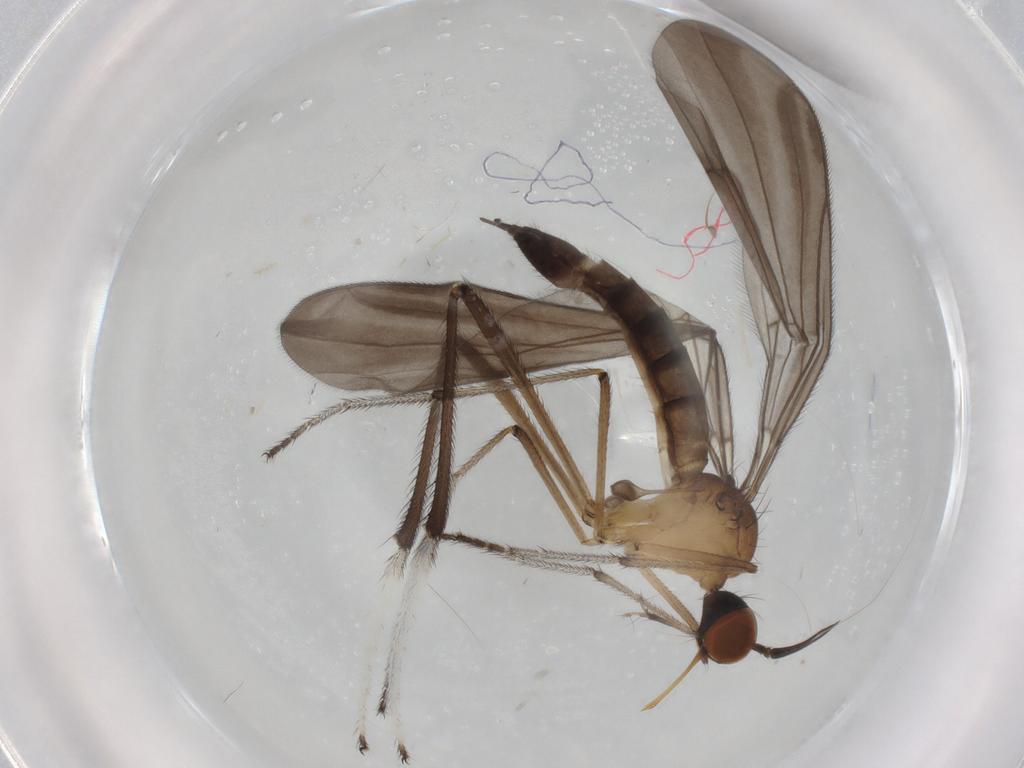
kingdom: Animalia
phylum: Arthropoda
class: Insecta
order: Diptera
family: Empididae
